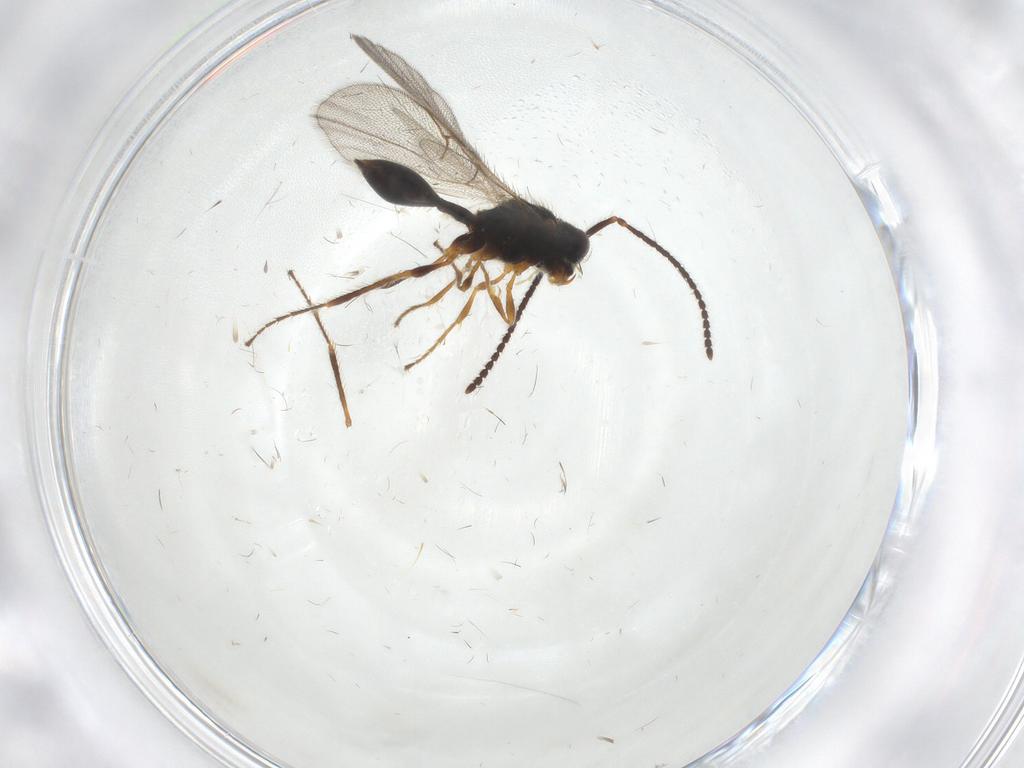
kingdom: Animalia
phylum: Arthropoda
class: Insecta
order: Hymenoptera
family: Diapriidae
